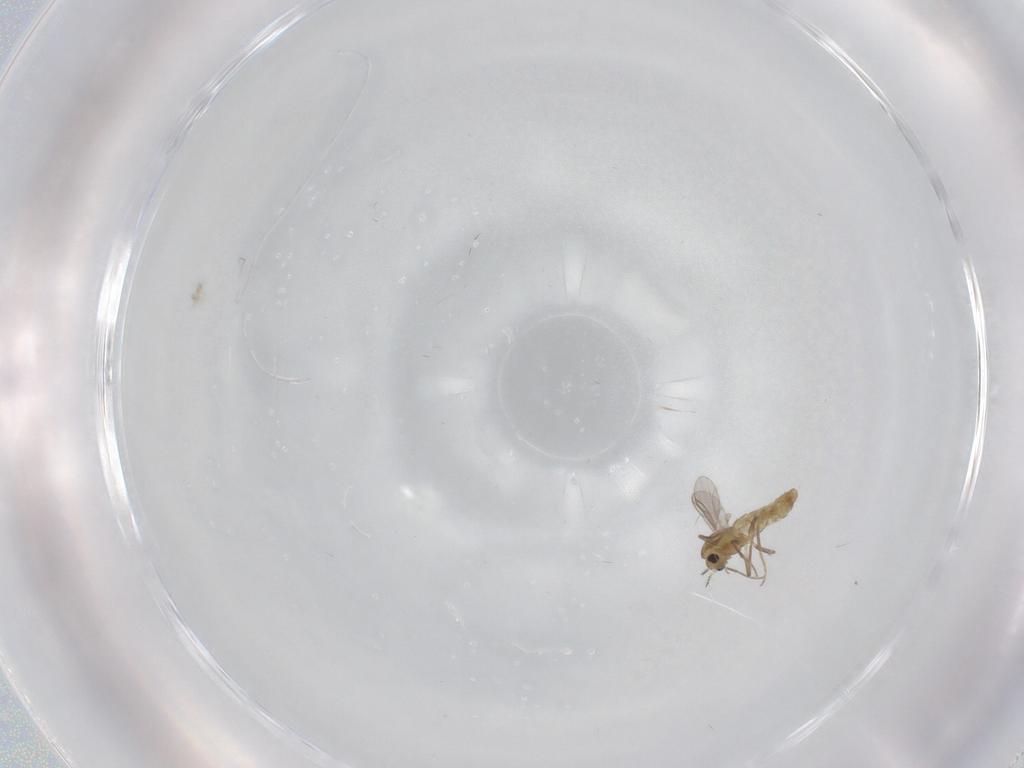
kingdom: Animalia
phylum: Arthropoda
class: Insecta
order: Diptera
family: Chironomidae
